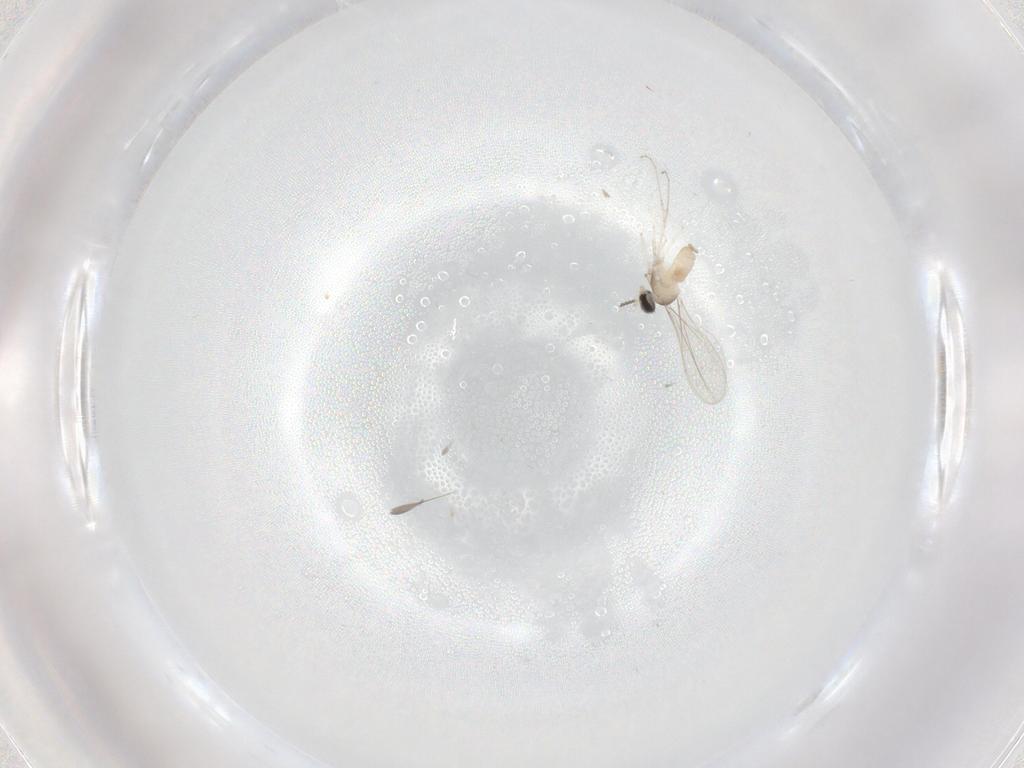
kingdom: Animalia
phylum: Arthropoda
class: Insecta
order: Diptera
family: Cecidomyiidae
